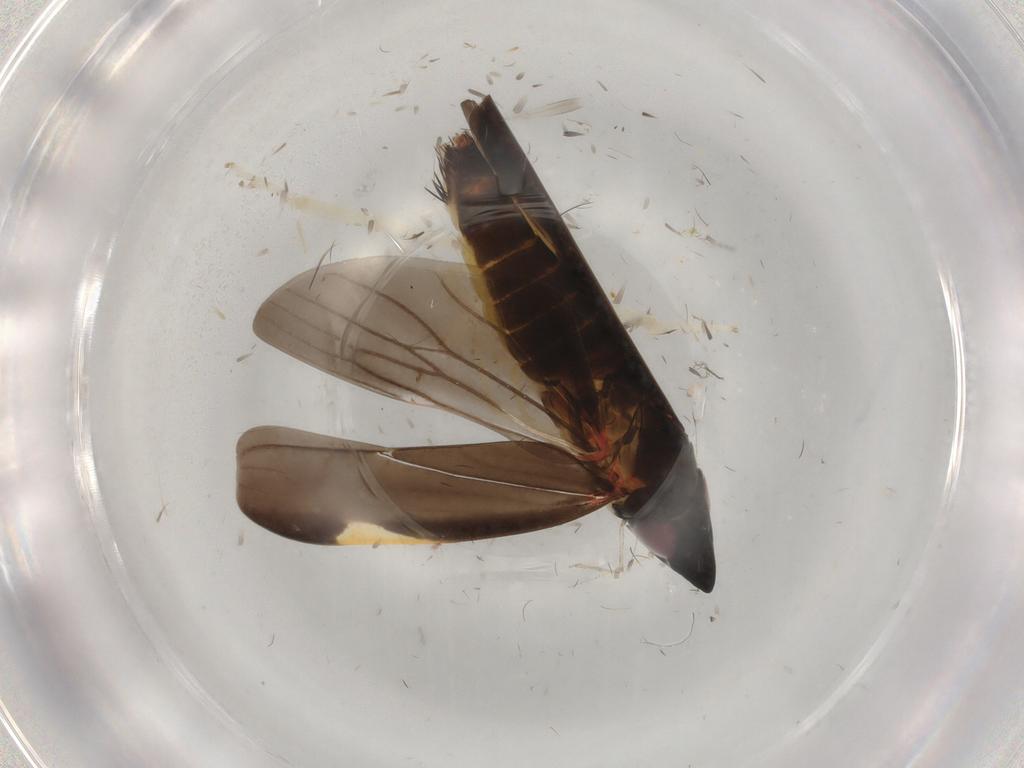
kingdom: Animalia
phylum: Arthropoda
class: Insecta
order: Hemiptera
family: Cicadellidae
